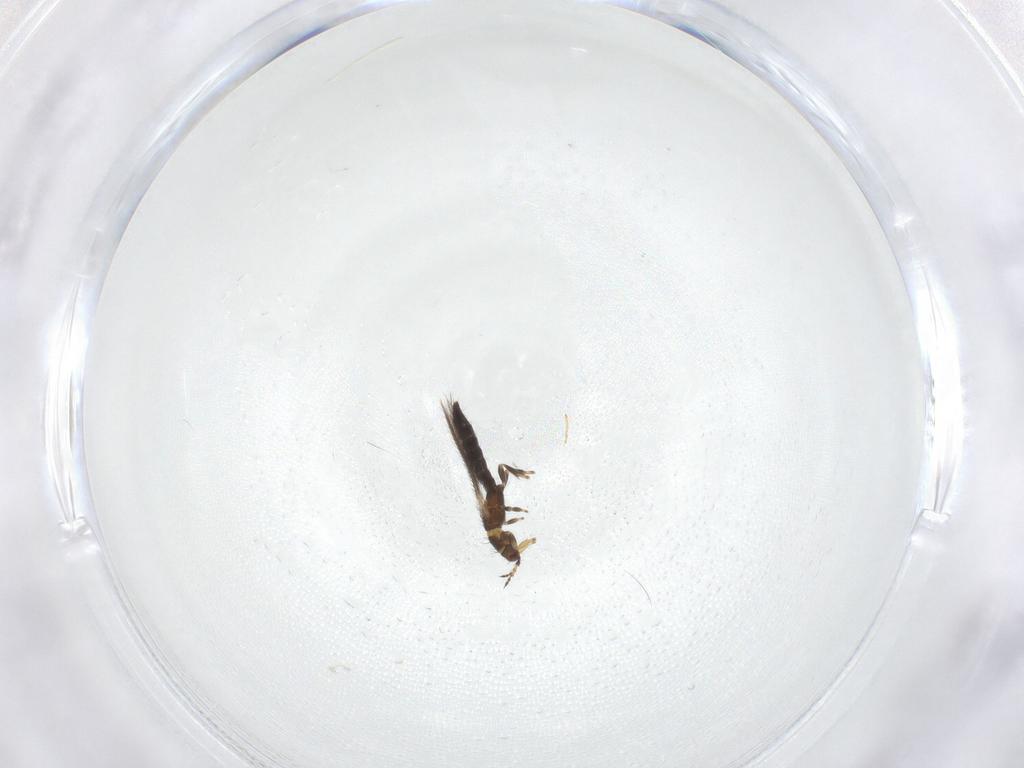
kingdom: Animalia
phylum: Arthropoda
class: Insecta
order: Thysanoptera
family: Thripidae
